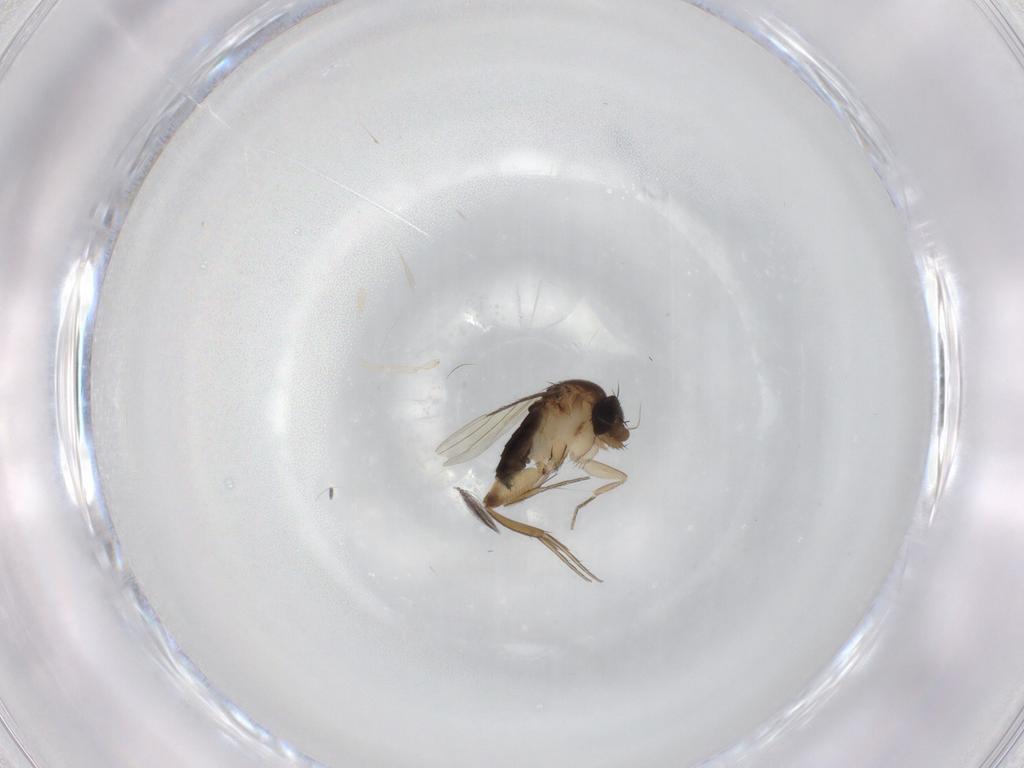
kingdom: Animalia
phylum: Arthropoda
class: Insecta
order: Diptera
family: Phoridae
